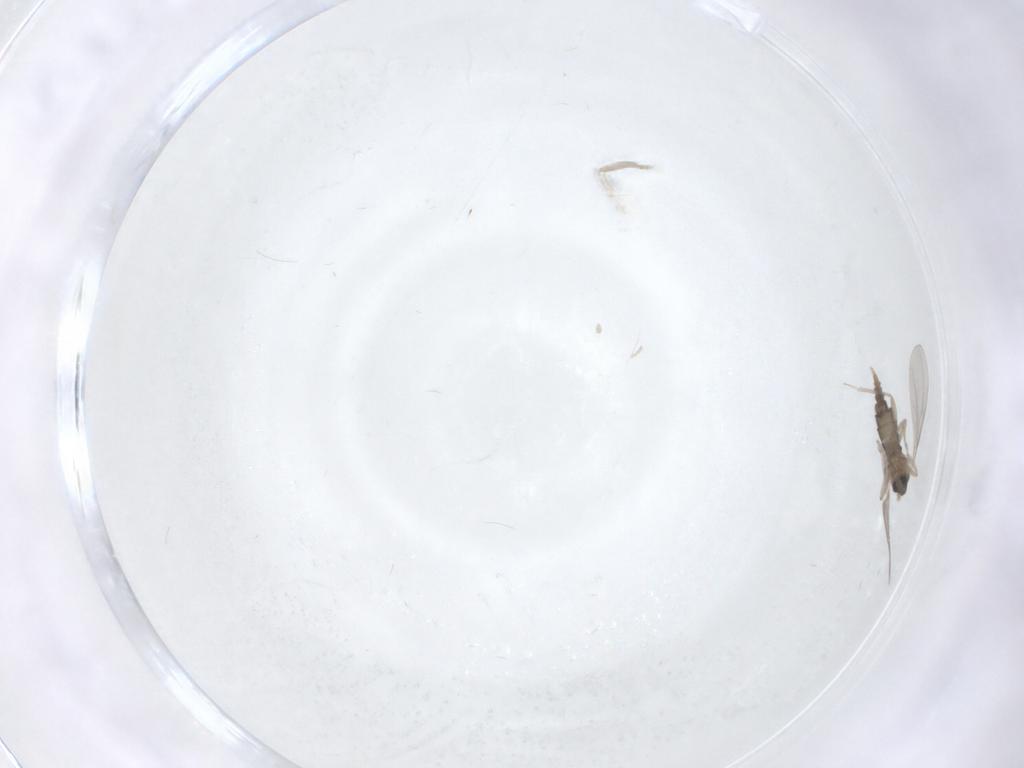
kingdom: Animalia
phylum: Arthropoda
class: Insecta
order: Diptera
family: Cecidomyiidae
